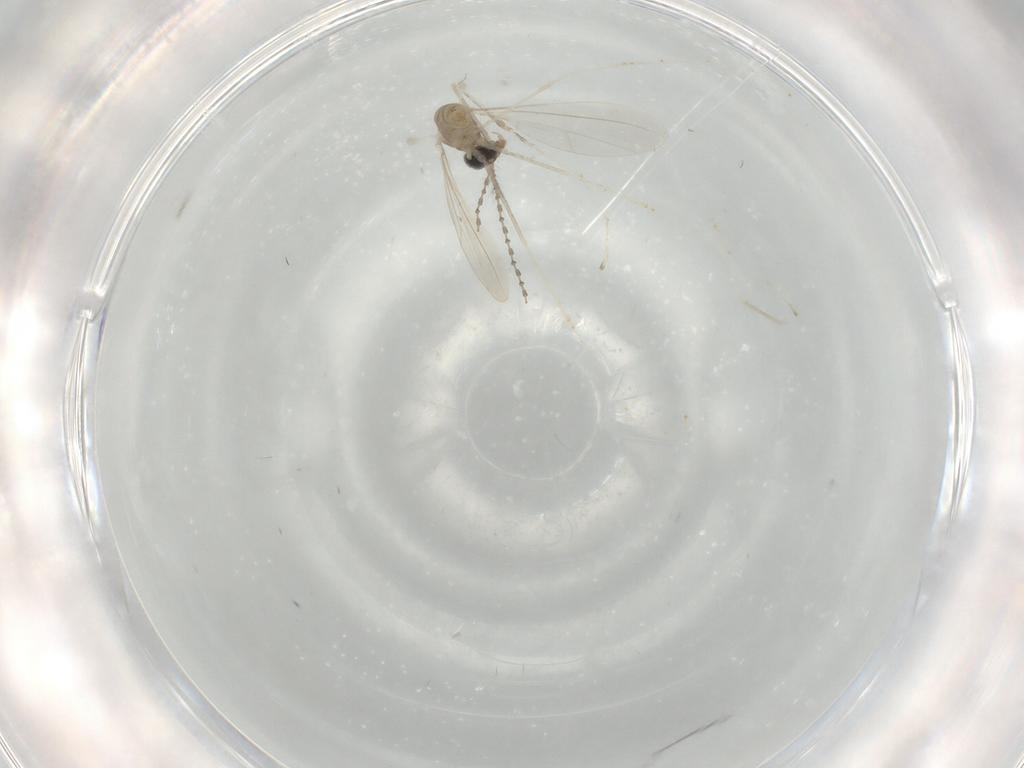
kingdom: Animalia
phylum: Arthropoda
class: Insecta
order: Diptera
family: Cecidomyiidae
